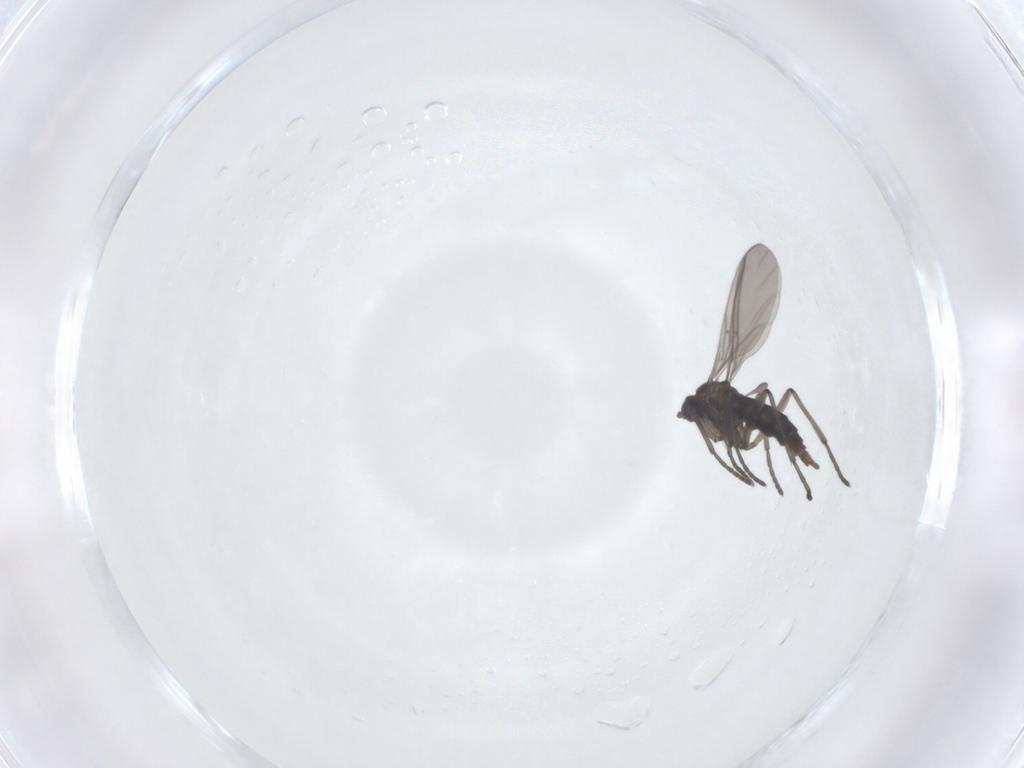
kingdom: Animalia
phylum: Arthropoda
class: Insecta
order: Diptera
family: Sciaridae
